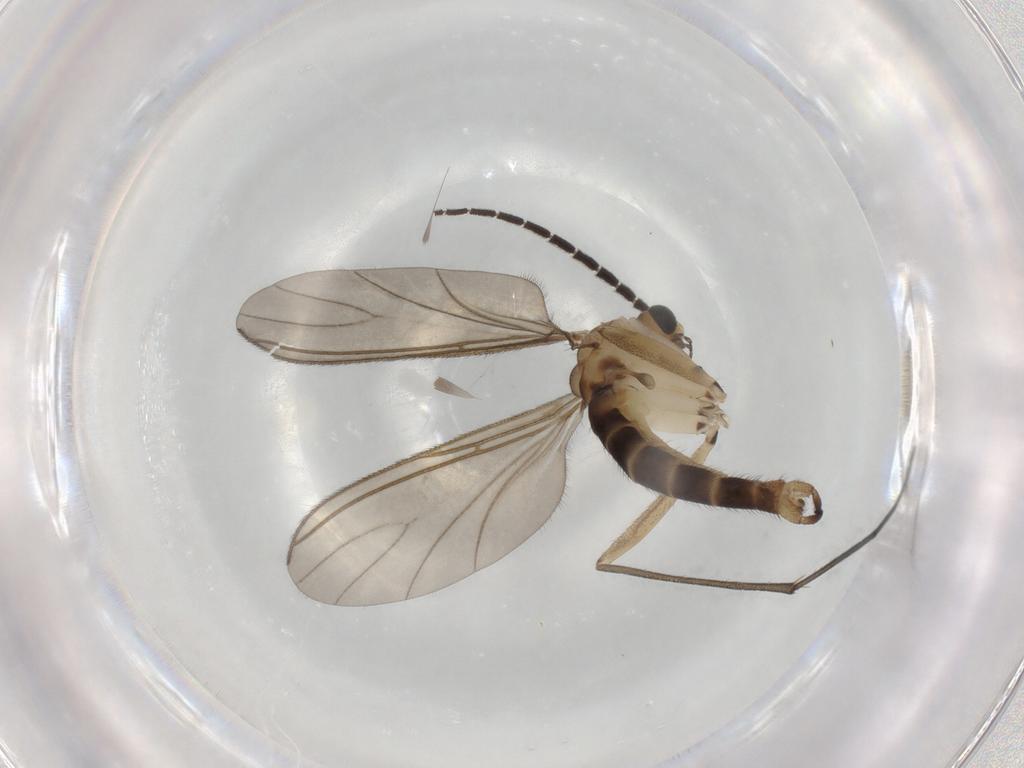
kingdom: Animalia
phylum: Arthropoda
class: Insecta
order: Diptera
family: Sciaridae
